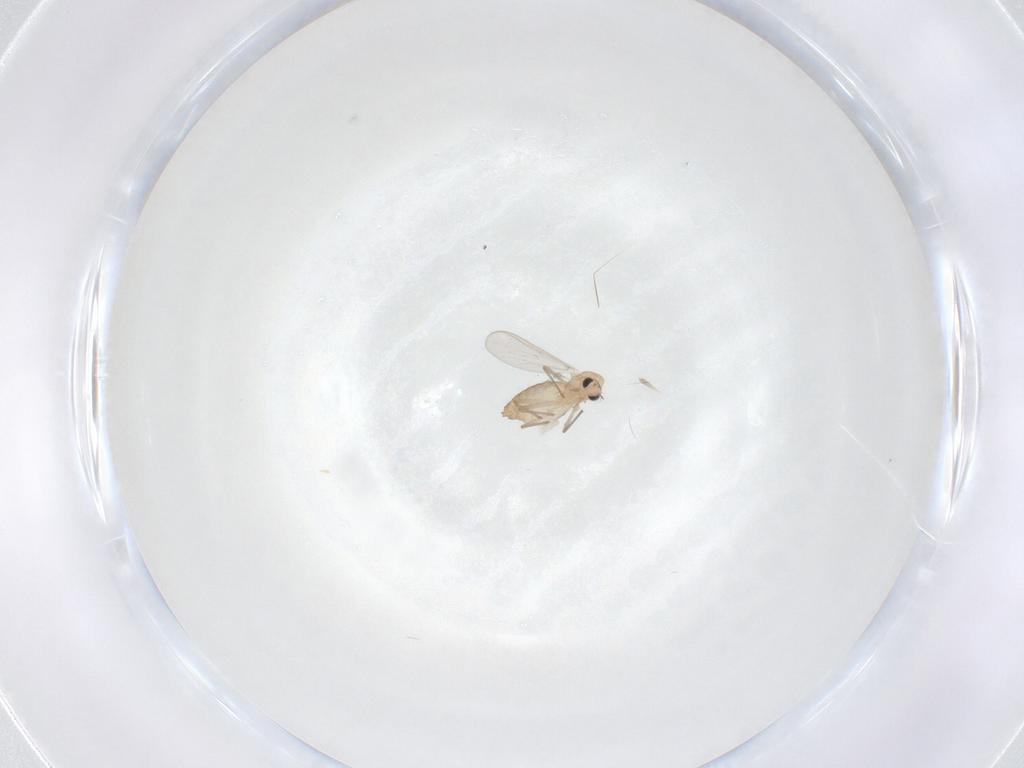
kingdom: Animalia
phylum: Arthropoda
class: Insecta
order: Diptera
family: Chironomidae
